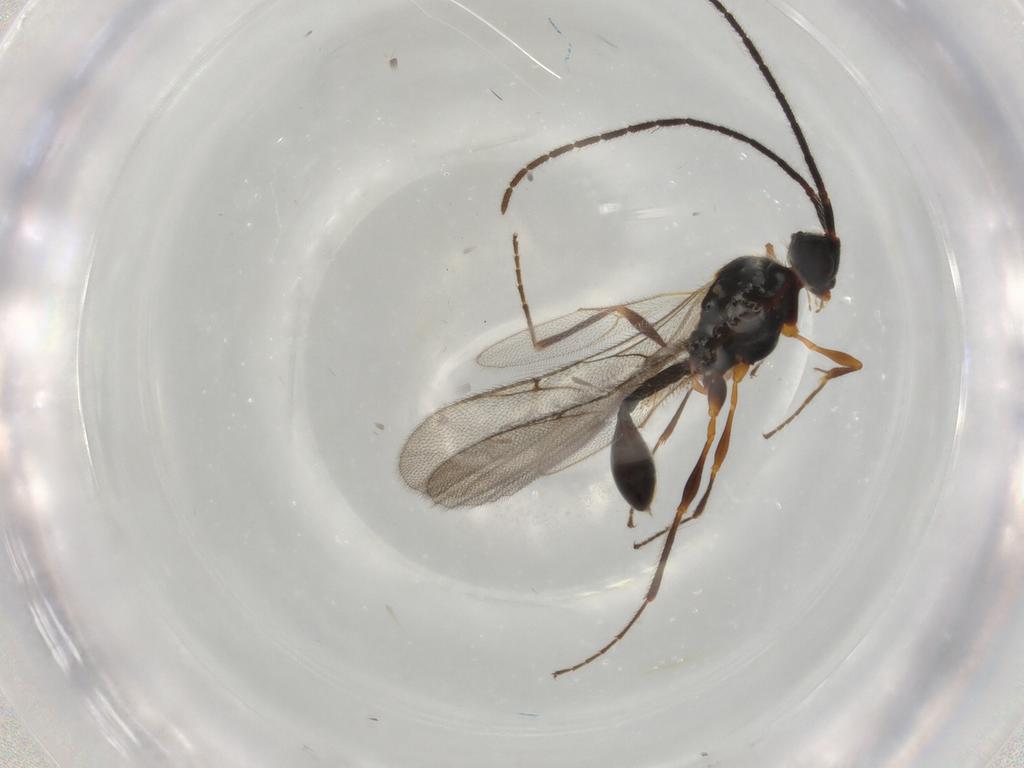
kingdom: Animalia
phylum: Arthropoda
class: Insecta
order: Hymenoptera
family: Diapriidae
